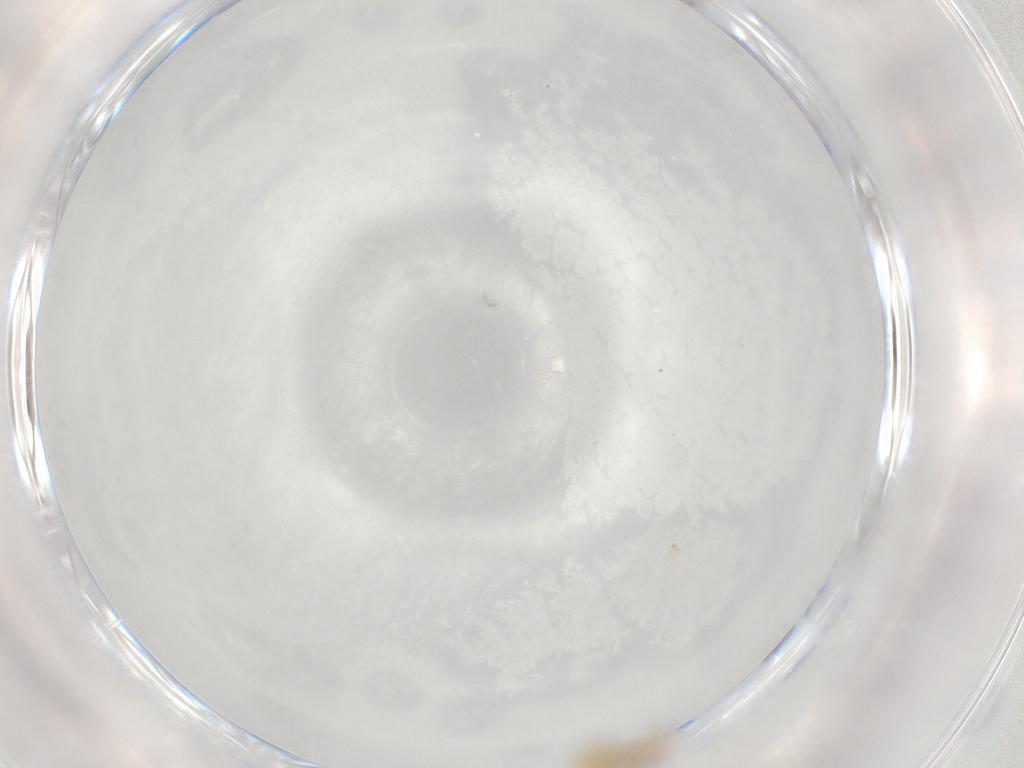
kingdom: Animalia
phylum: Arthropoda
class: Arachnida
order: Mesostigmata
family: Ascidae
